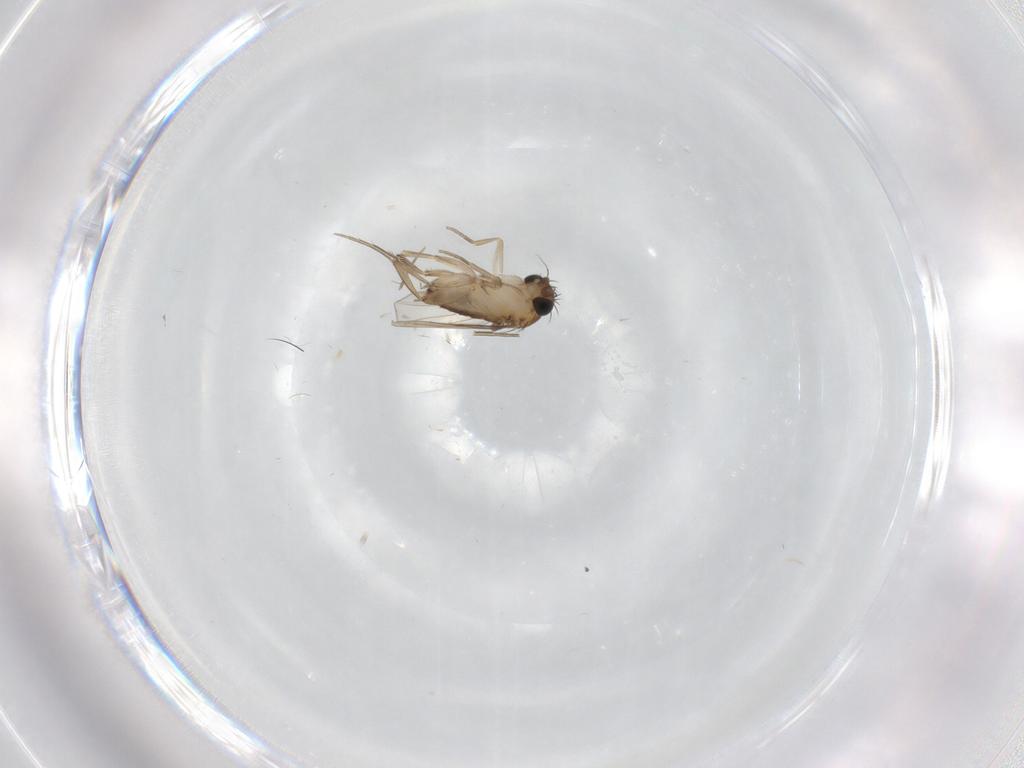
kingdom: Animalia
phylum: Arthropoda
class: Insecta
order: Diptera
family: Phoridae
